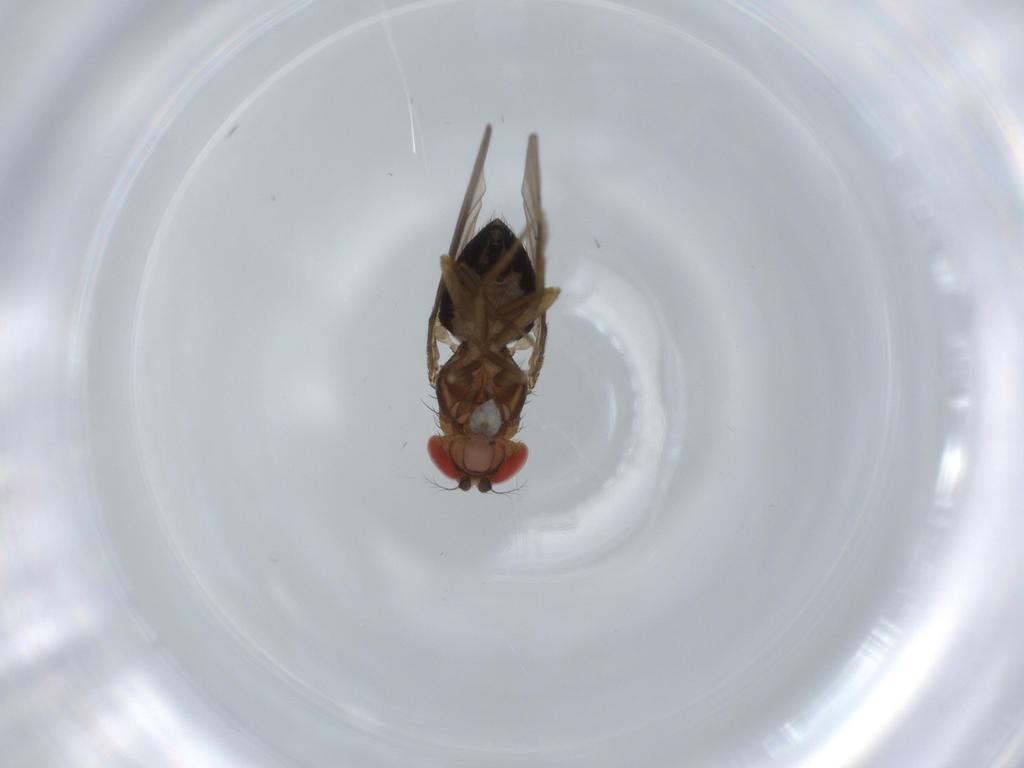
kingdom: Animalia
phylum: Arthropoda
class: Insecta
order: Diptera
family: Drosophilidae
